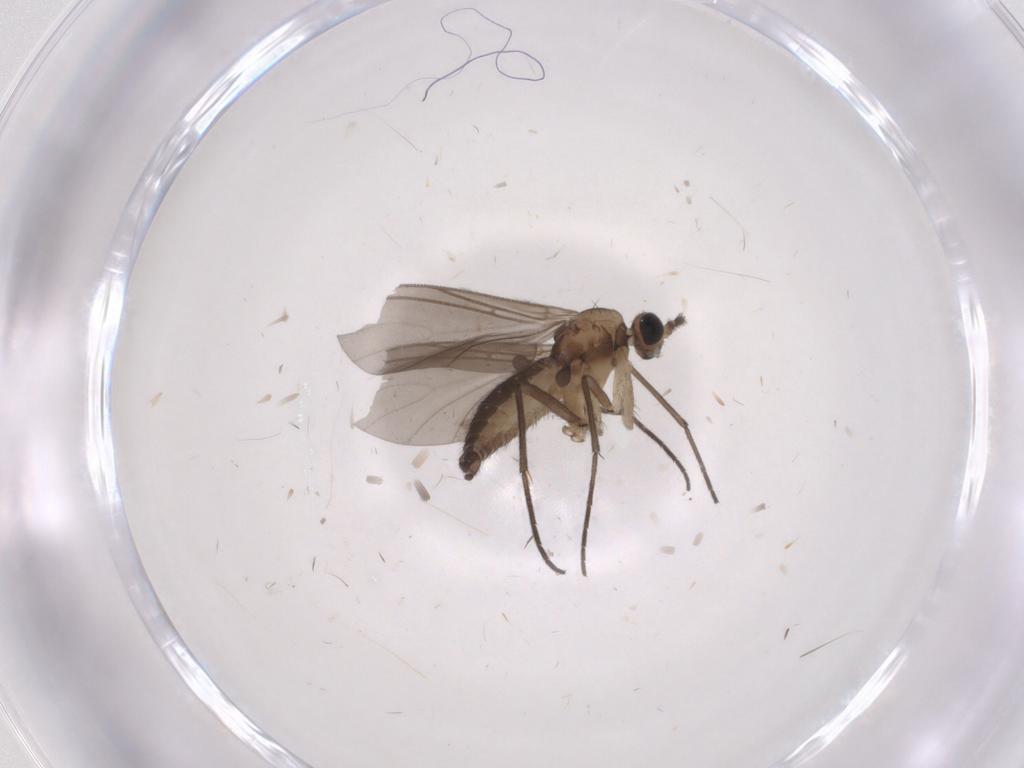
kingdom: Animalia
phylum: Arthropoda
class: Insecta
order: Diptera
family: Sciaridae
